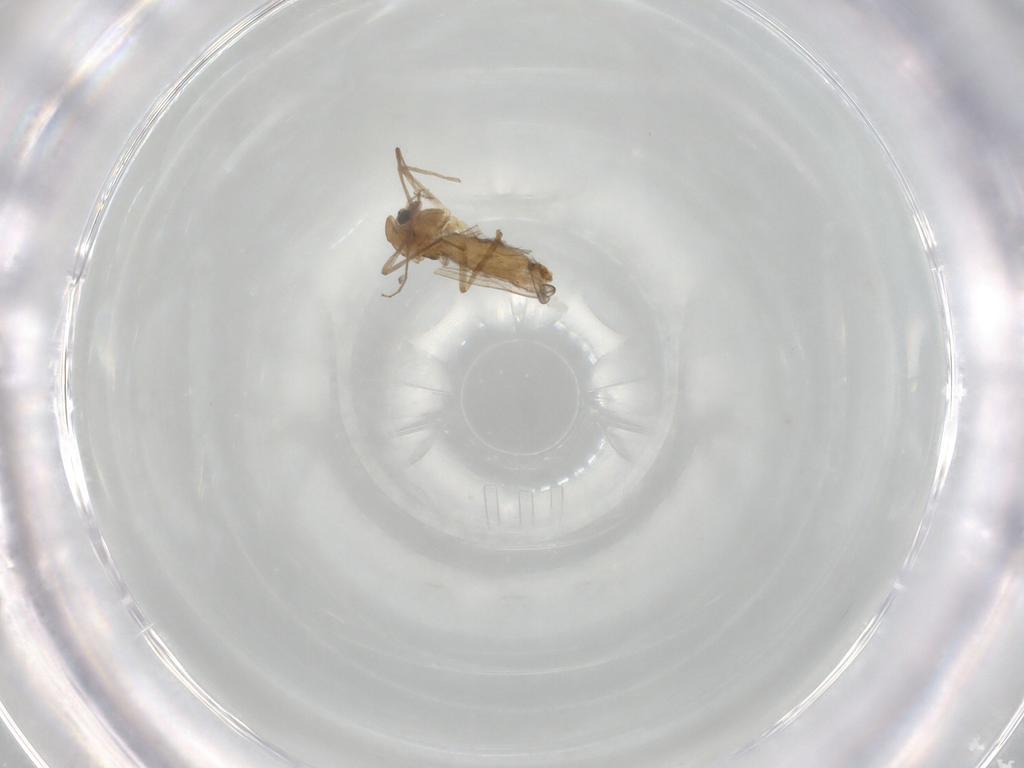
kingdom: Animalia
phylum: Arthropoda
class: Insecta
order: Diptera
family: Chironomidae
